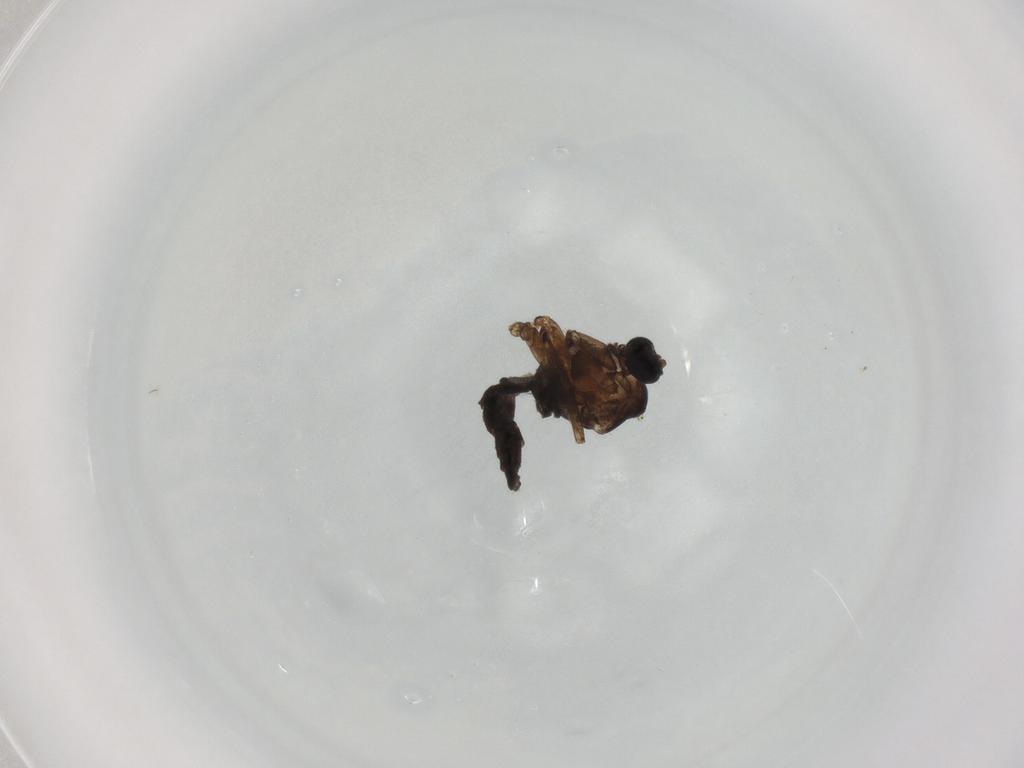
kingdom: Animalia
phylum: Arthropoda
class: Insecta
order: Diptera
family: Sciaridae
